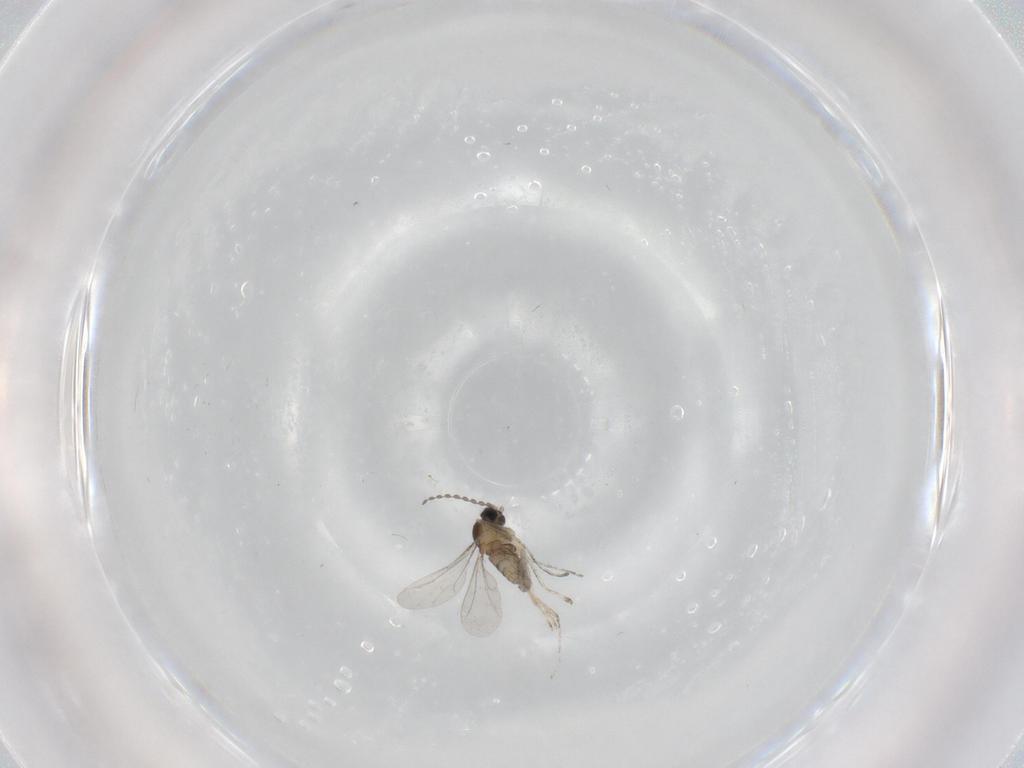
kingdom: Animalia
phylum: Arthropoda
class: Insecta
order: Diptera
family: Cecidomyiidae
